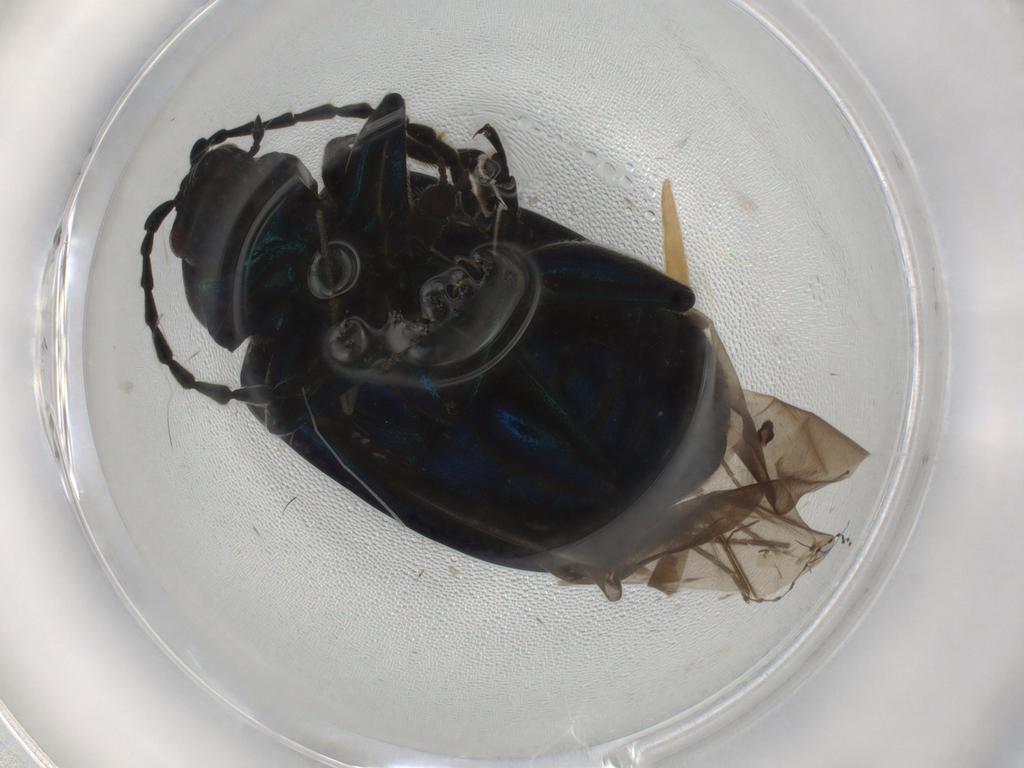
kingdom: Animalia
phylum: Arthropoda
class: Insecta
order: Coleoptera
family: Chrysomelidae
